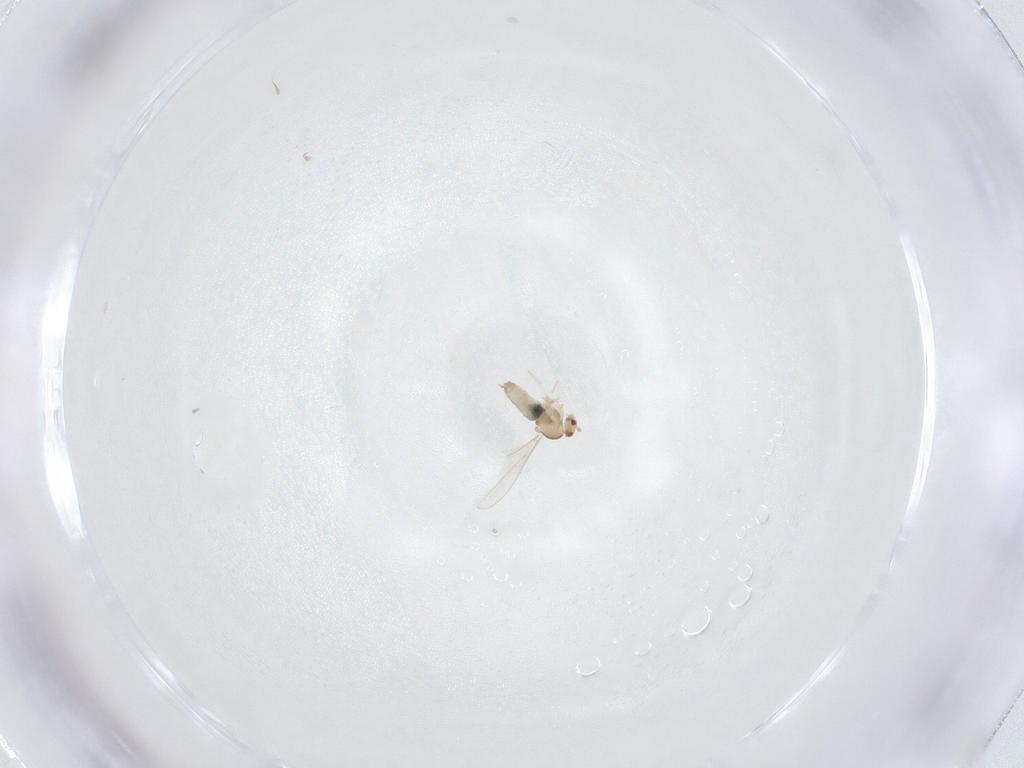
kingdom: Animalia
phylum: Arthropoda
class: Insecta
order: Diptera
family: Cecidomyiidae
